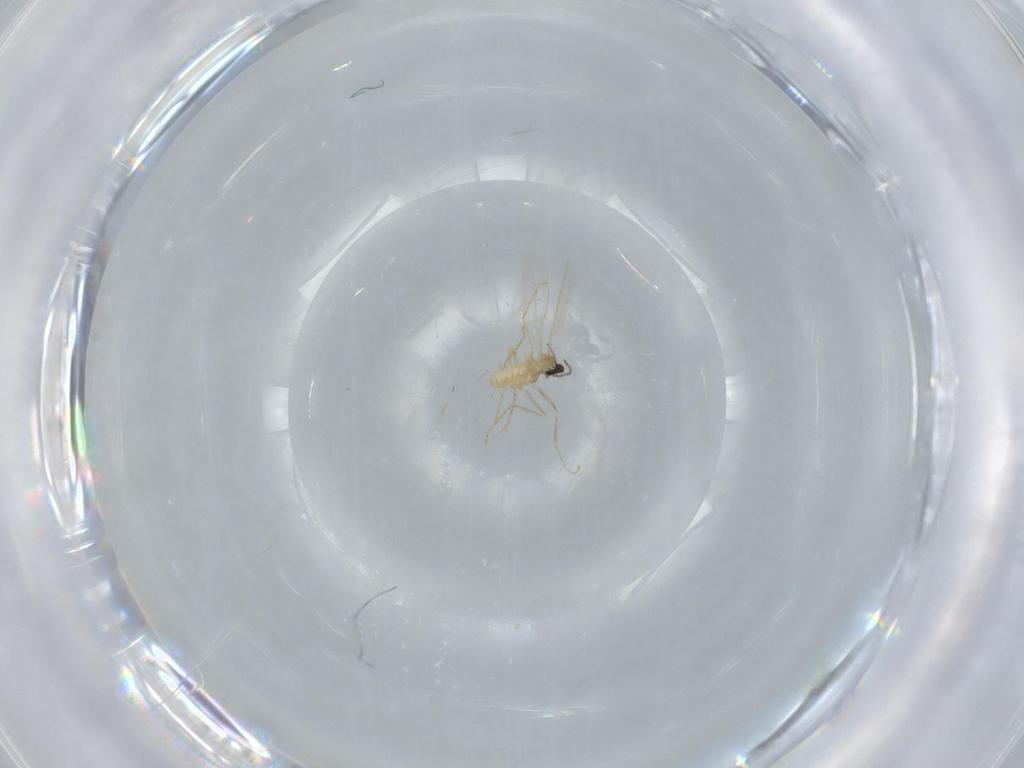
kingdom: Animalia
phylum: Arthropoda
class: Insecta
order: Diptera
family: Cecidomyiidae
